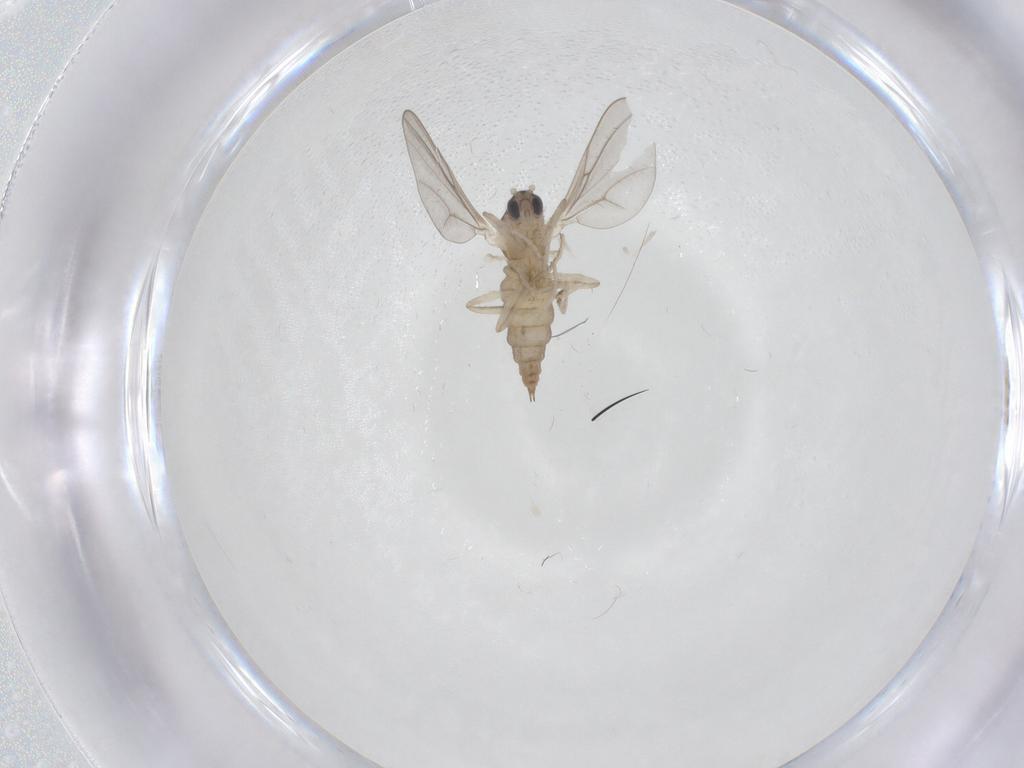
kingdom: Animalia
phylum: Arthropoda
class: Insecta
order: Diptera
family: Cecidomyiidae
